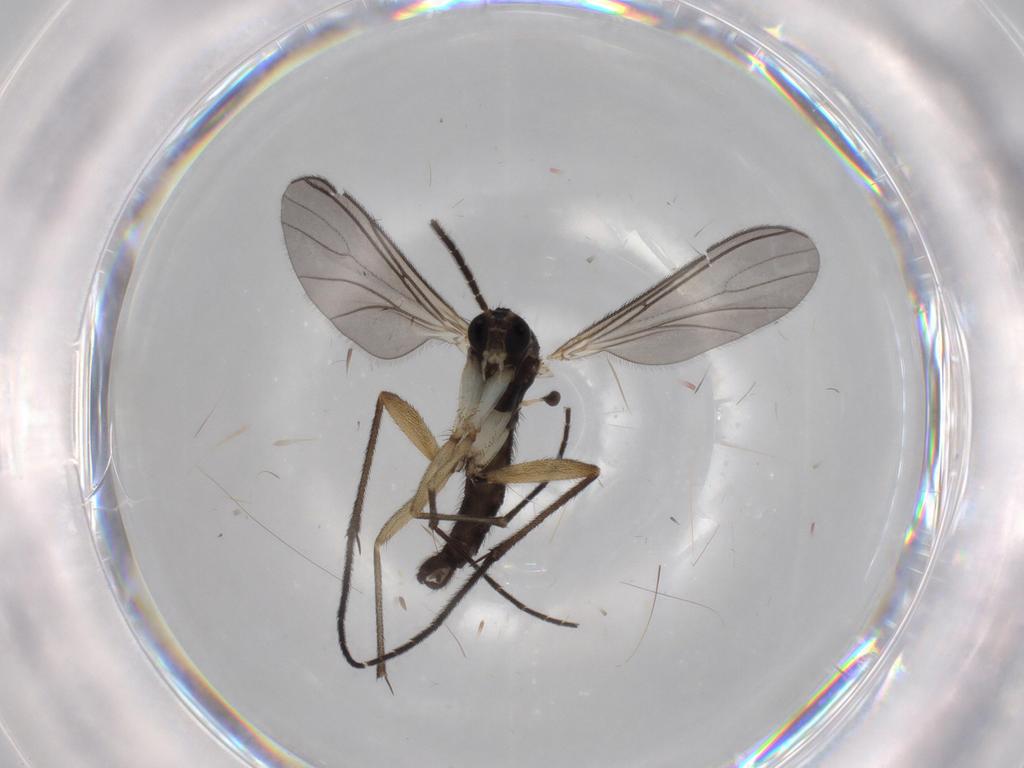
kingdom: Animalia
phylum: Arthropoda
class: Insecta
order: Diptera
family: Sciaridae
